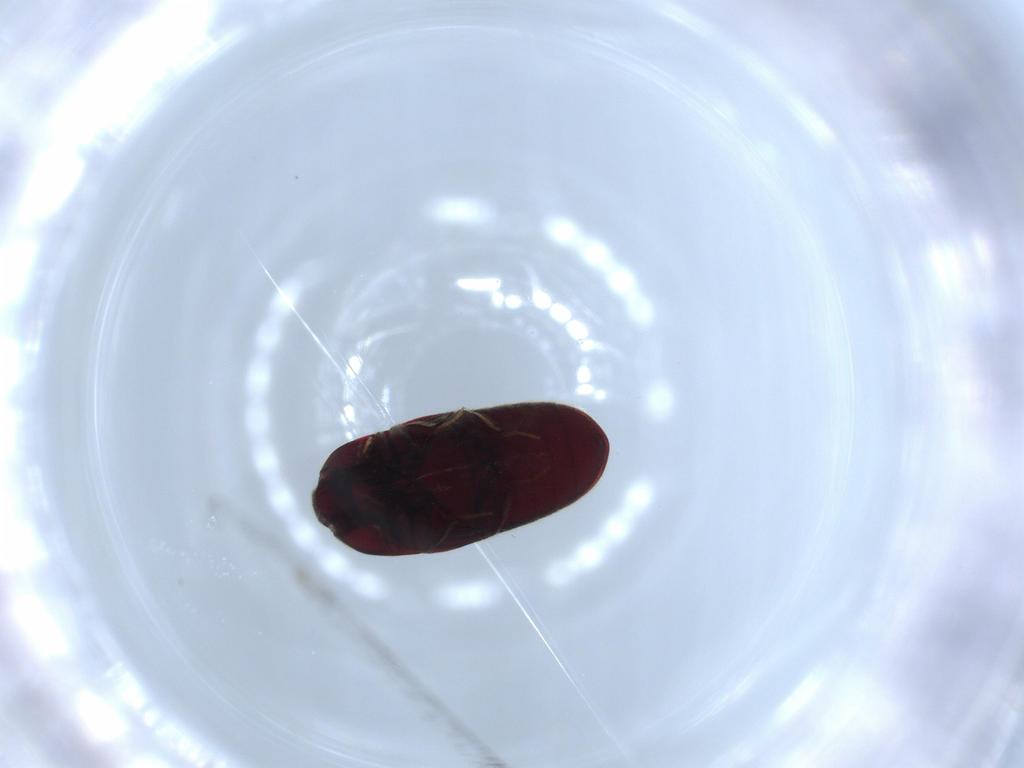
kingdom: Animalia
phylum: Arthropoda
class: Insecta
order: Coleoptera
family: Throscidae
